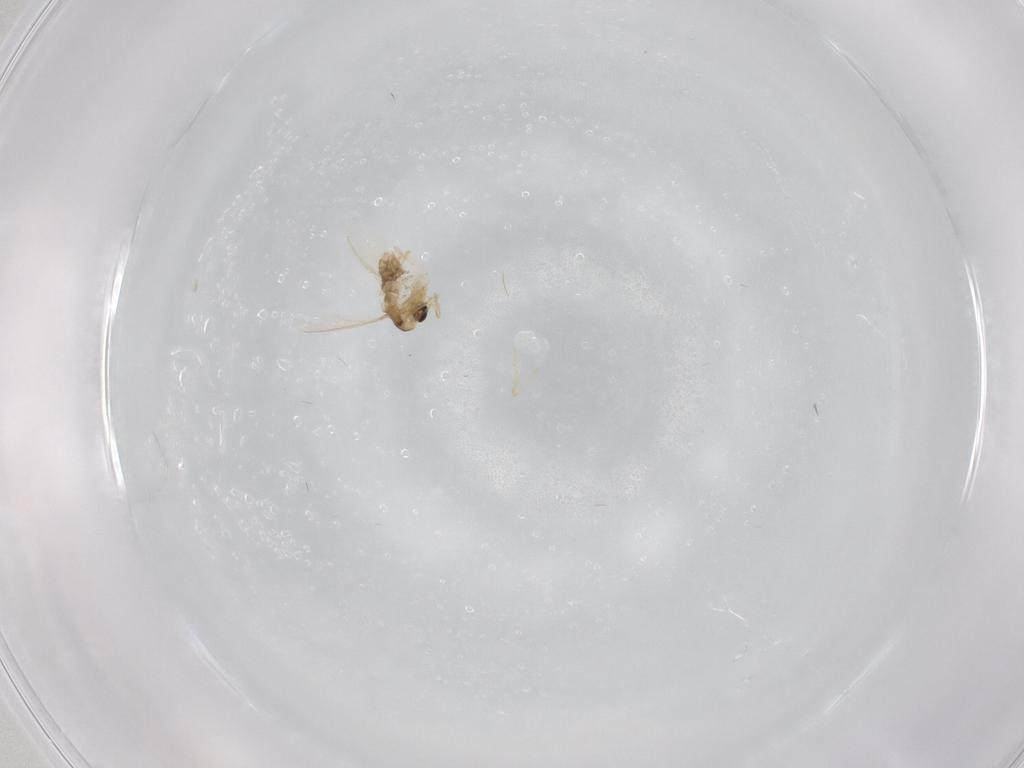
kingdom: Animalia
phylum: Arthropoda
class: Insecta
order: Diptera
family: Chironomidae
